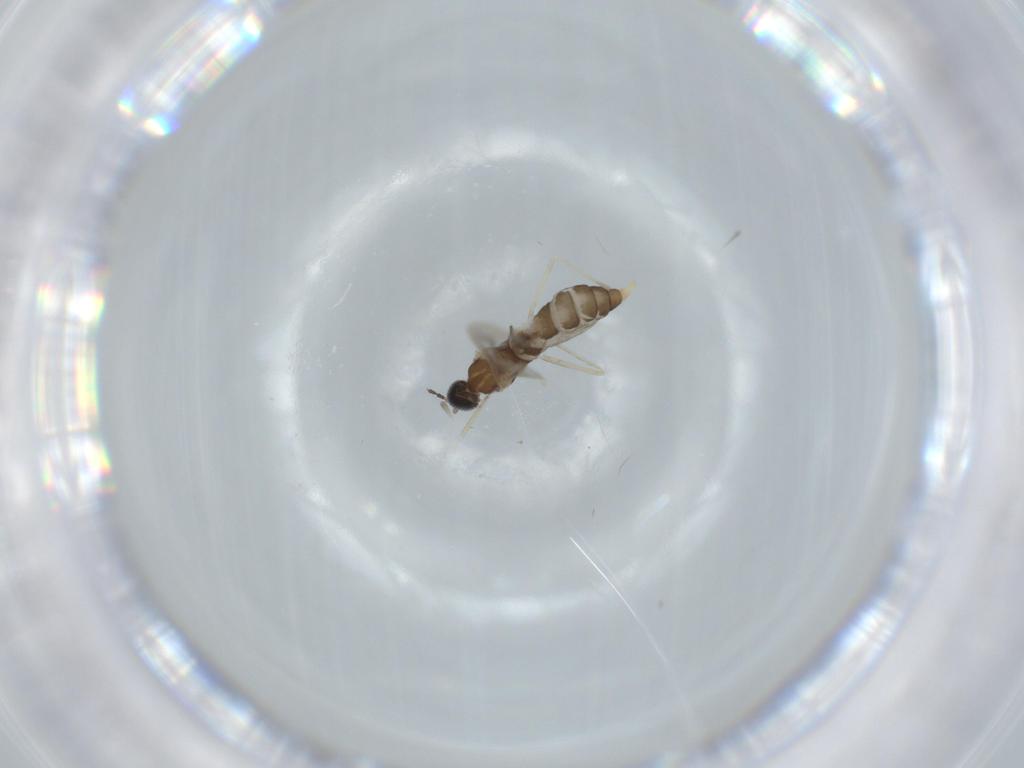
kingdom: Animalia
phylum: Arthropoda
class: Insecta
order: Diptera
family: Cecidomyiidae
